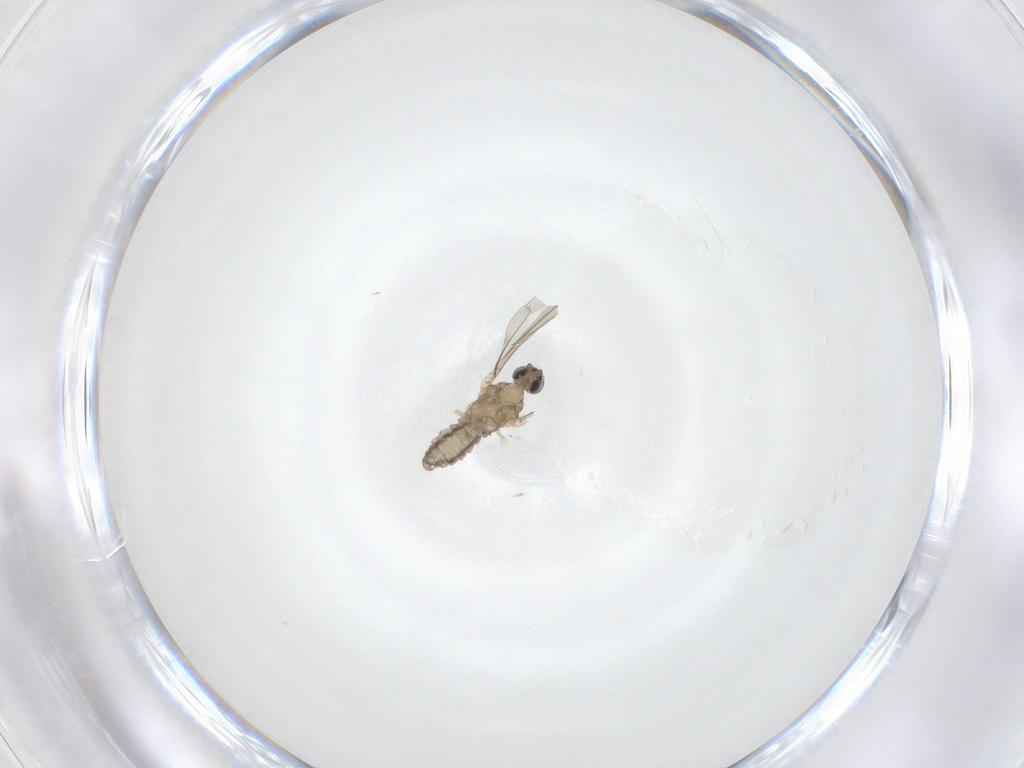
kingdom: Animalia
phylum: Arthropoda
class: Insecta
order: Diptera
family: Cecidomyiidae
